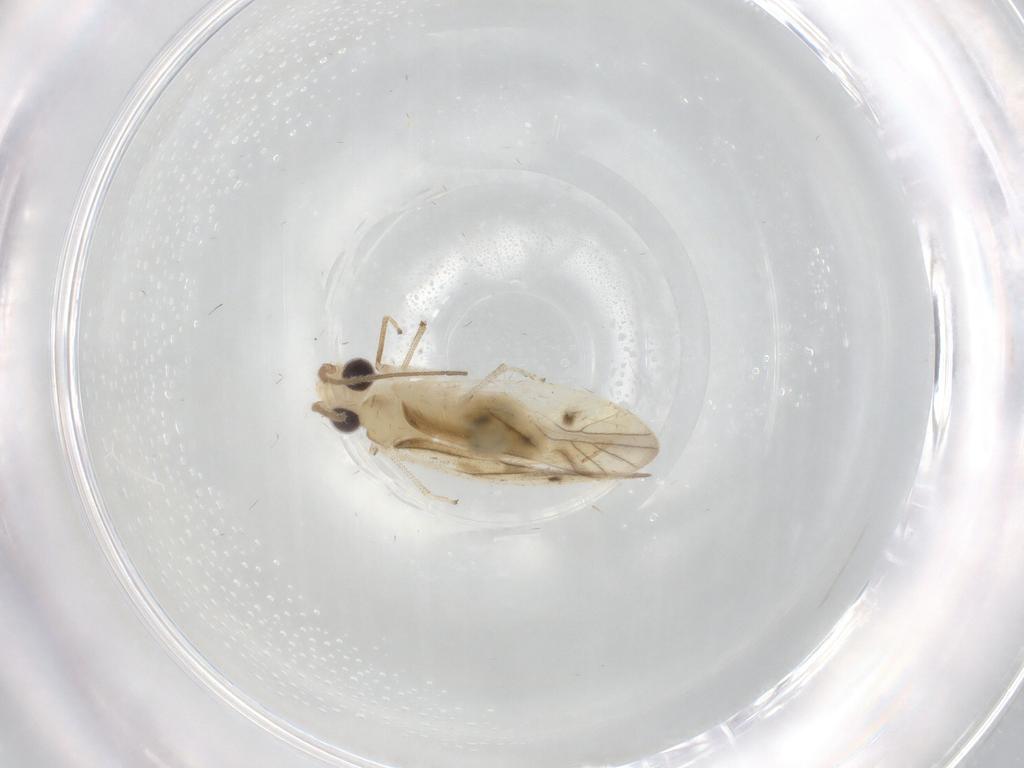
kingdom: Animalia
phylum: Arthropoda
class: Insecta
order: Psocodea
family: Caeciliusidae
